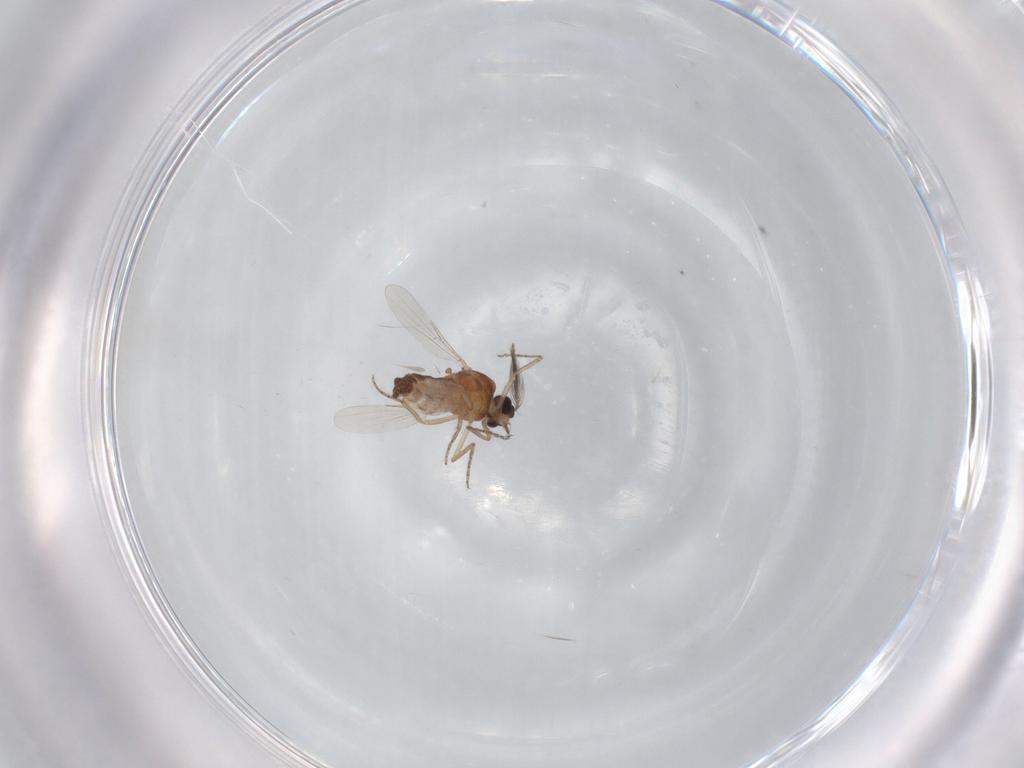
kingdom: Animalia
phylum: Arthropoda
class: Insecta
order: Diptera
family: Ceratopogonidae
